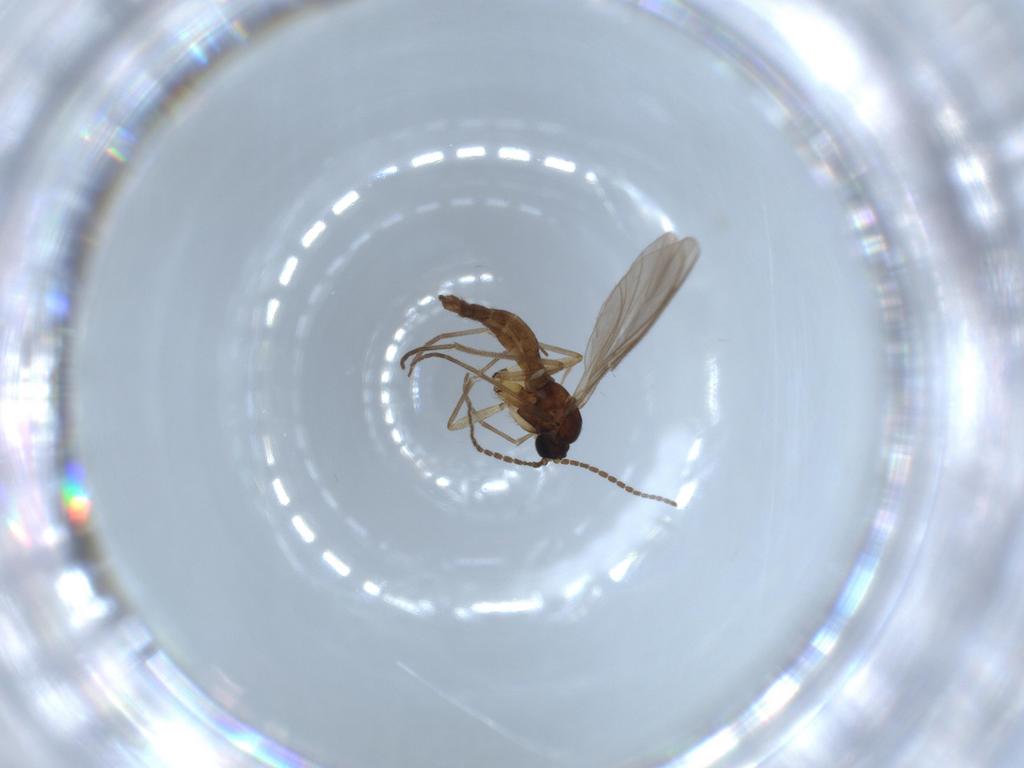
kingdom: Animalia
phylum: Arthropoda
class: Insecta
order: Diptera
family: Sciaridae
